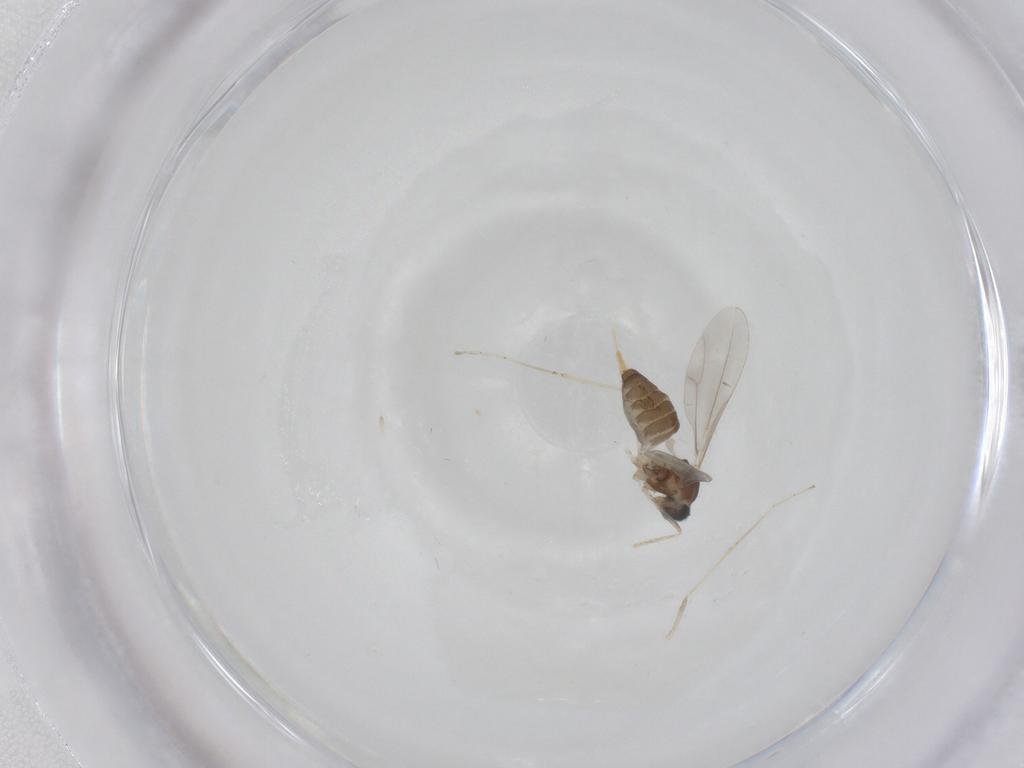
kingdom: Animalia
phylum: Arthropoda
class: Insecta
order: Diptera
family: Cecidomyiidae
